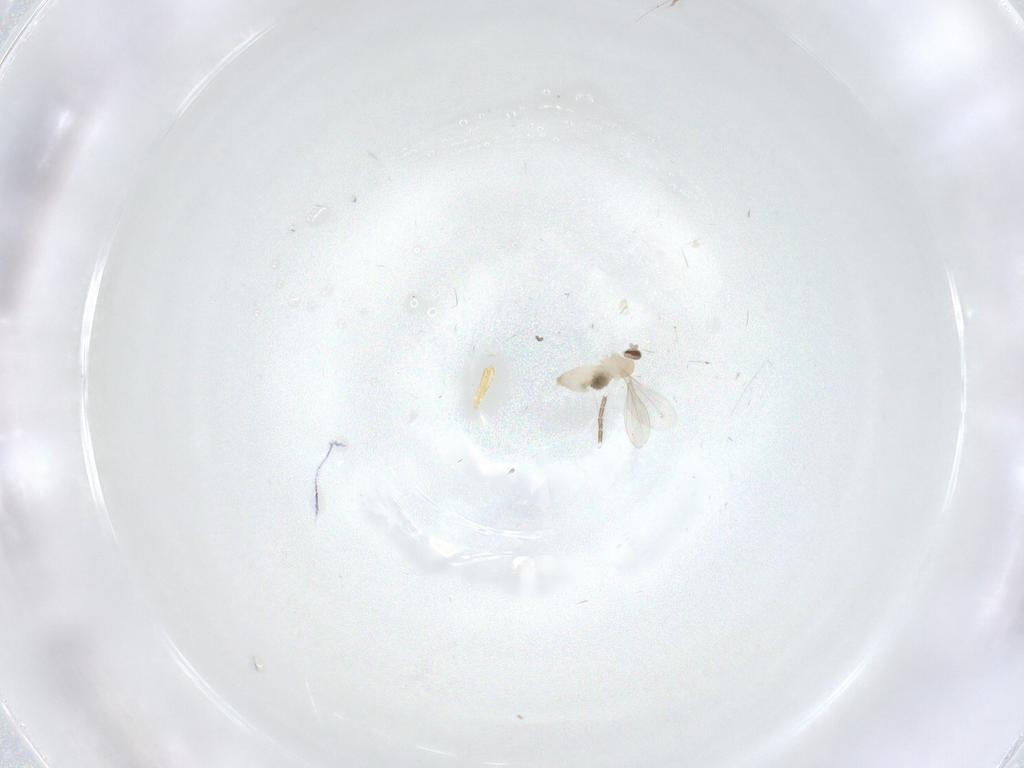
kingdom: Animalia
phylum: Arthropoda
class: Insecta
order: Diptera
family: Cecidomyiidae
